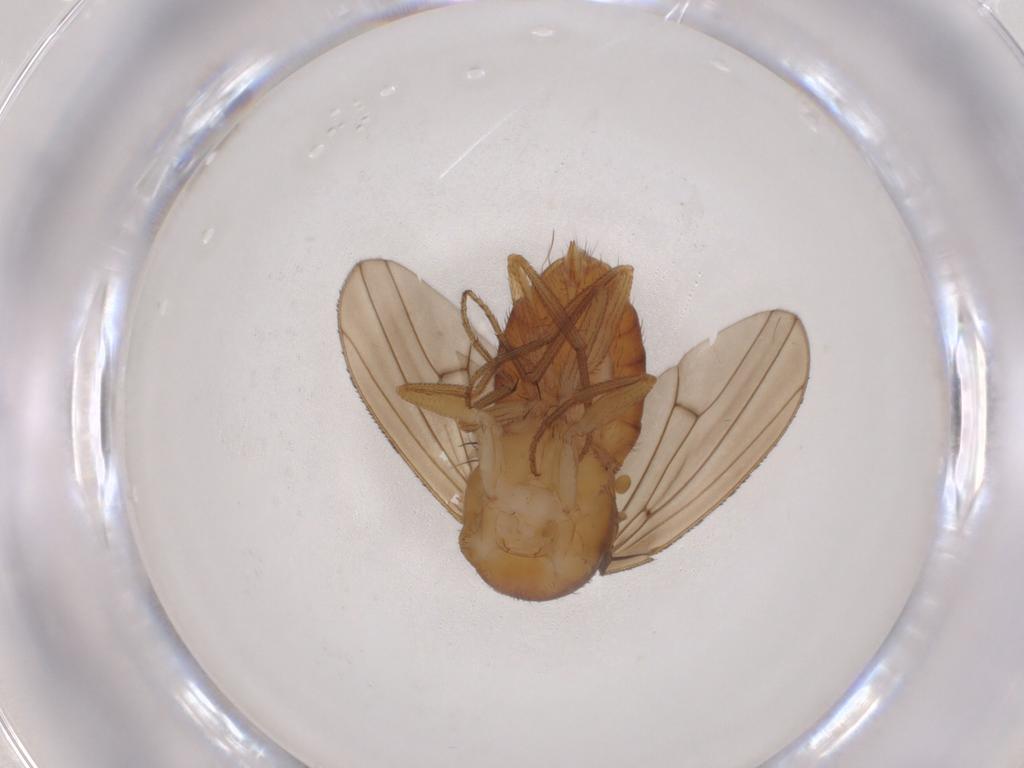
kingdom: Animalia
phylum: Arthropoda
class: Insecta
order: Diptera
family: Drosophilidae
